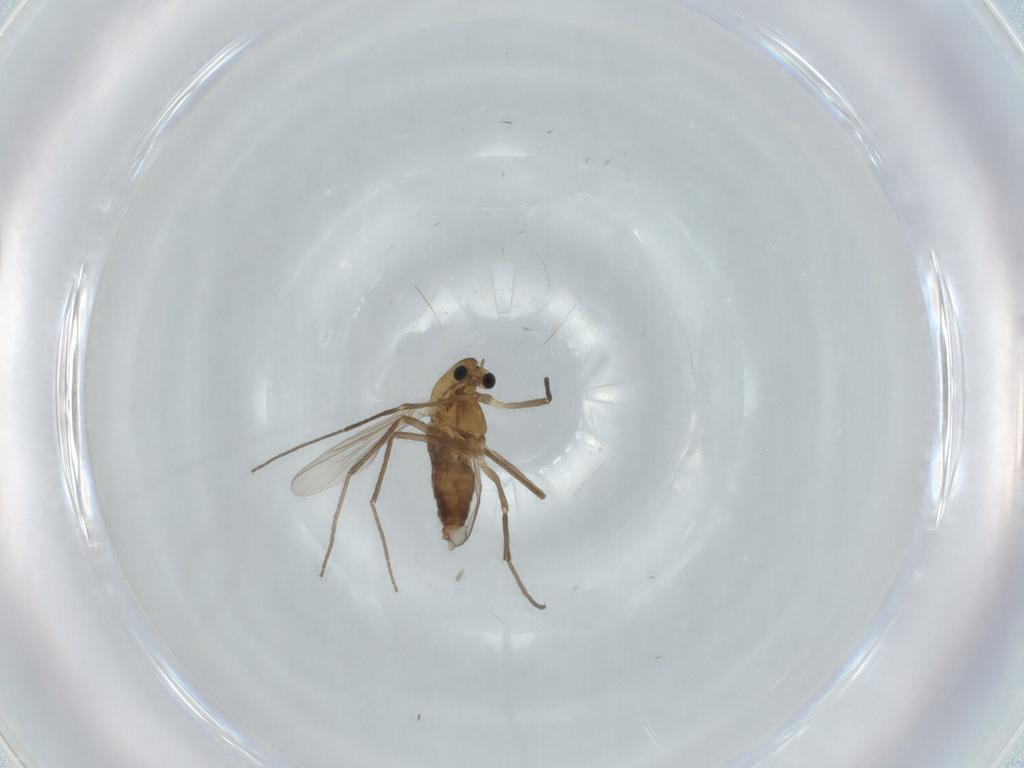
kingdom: Animalia
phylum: Arthropoda
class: Insecta
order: Diptera
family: Chironomidae
